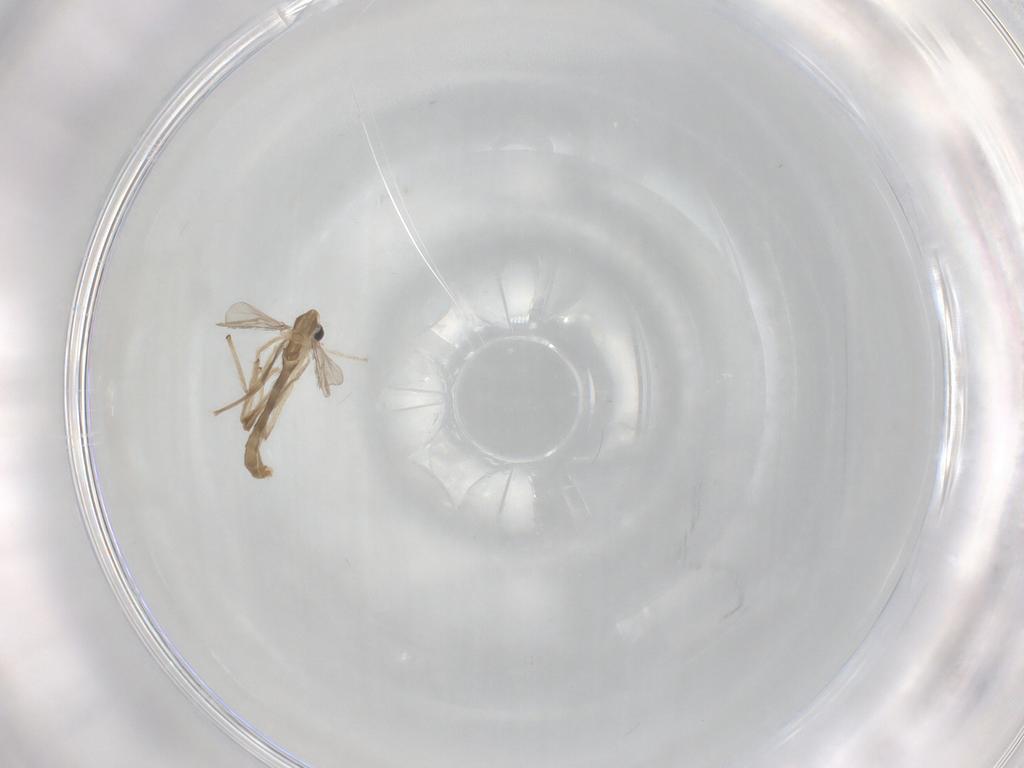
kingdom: Animalia
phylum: Arthropoda
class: Insecta
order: Diptera
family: Chironomidae
